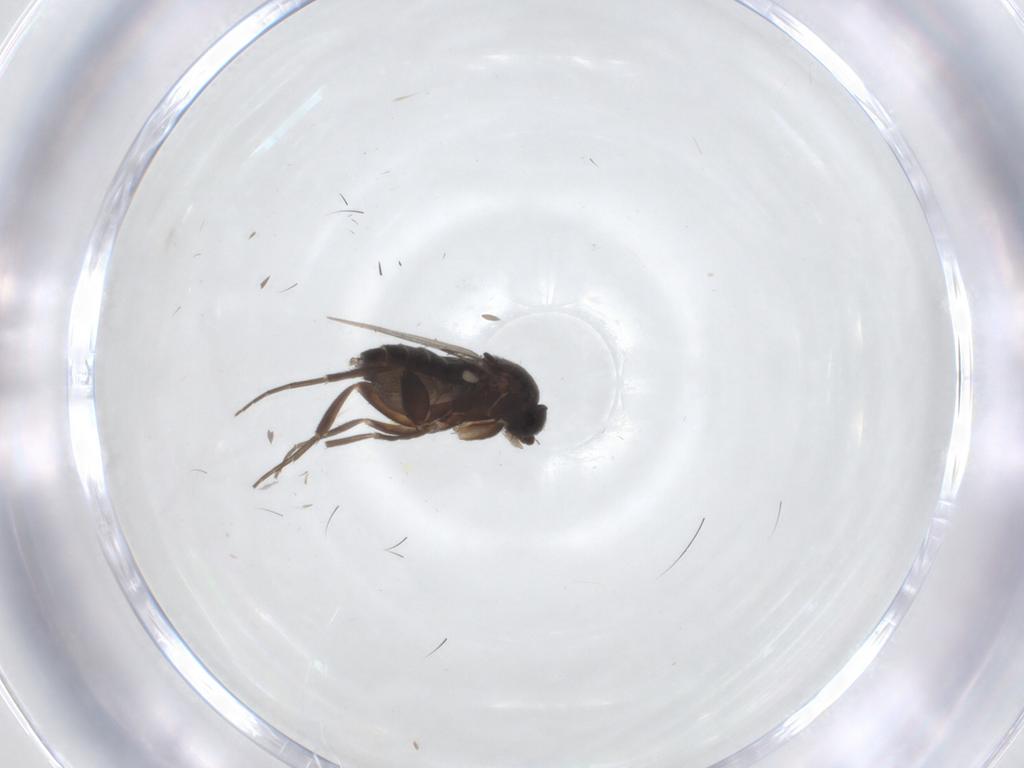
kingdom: Animalia
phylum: Arthropoda
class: Insecta
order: Diptera
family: Phoridae
